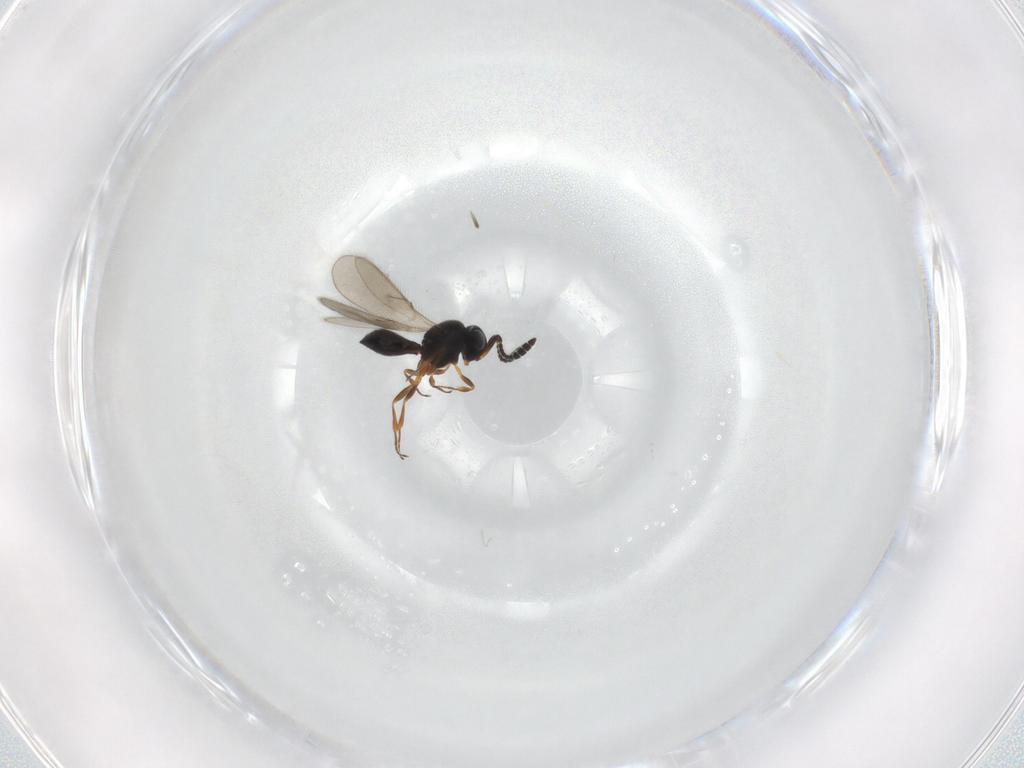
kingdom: Animalia
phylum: Arthropoda
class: Insecta
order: Hymenoptera
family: Scelionidae
